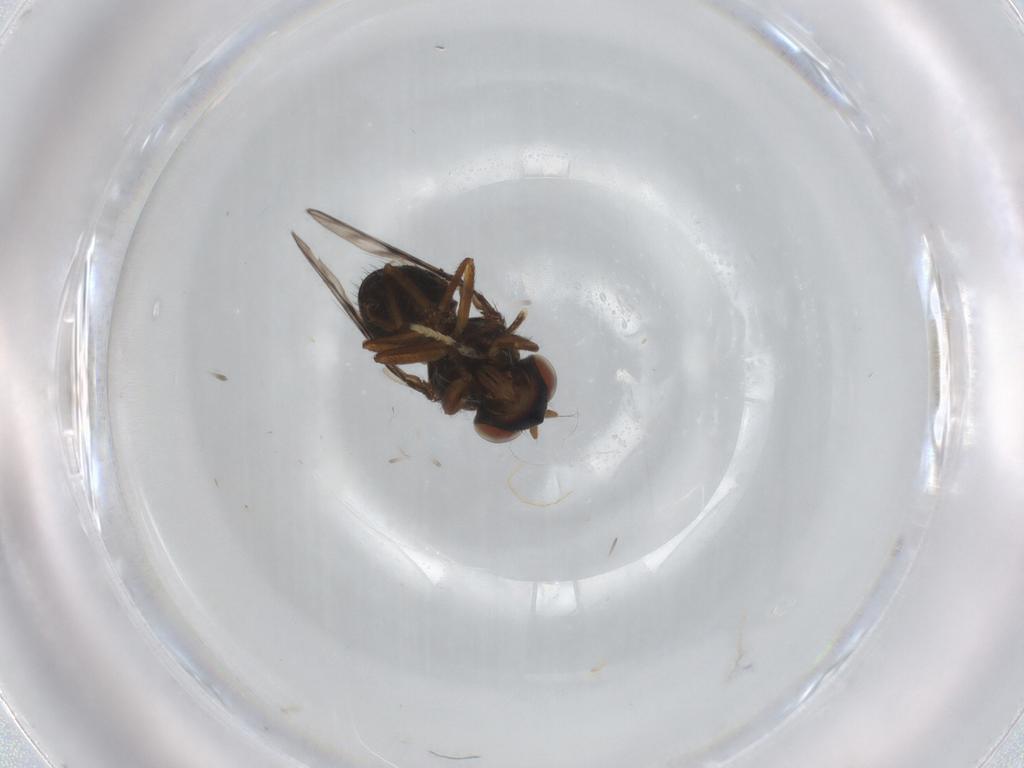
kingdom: Animalia
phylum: Arthropoda
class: Insecta
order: Diptera
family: Ephydridae
